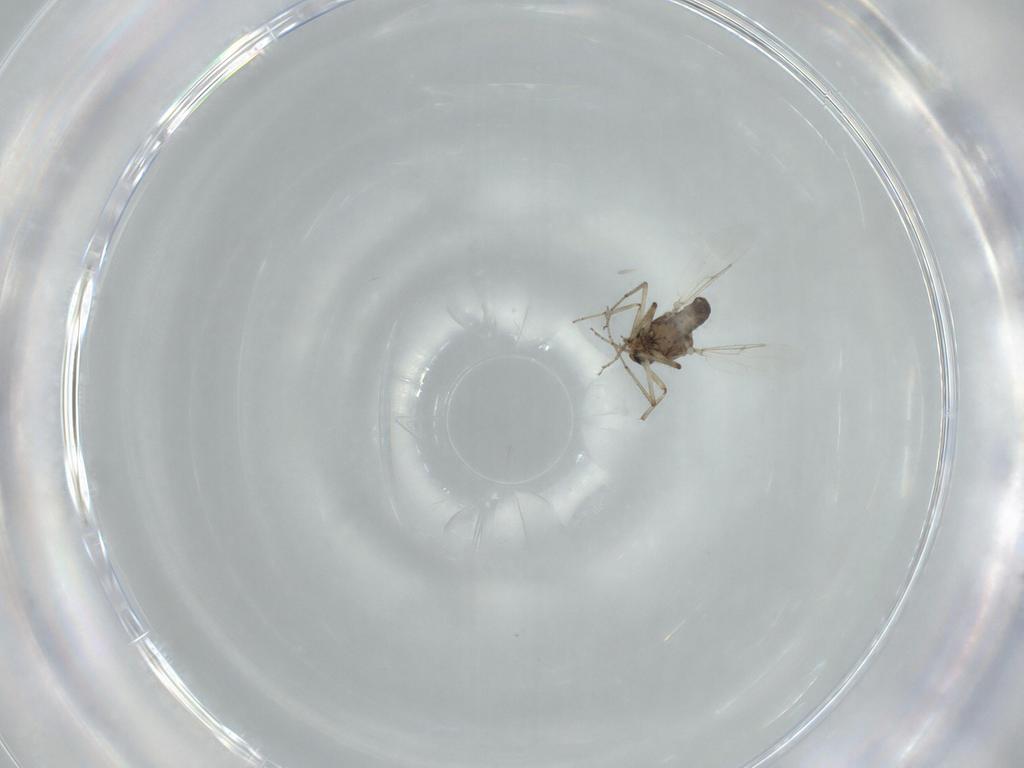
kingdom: Animalia
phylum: Arthropoda
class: Insecta
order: Diptera
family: Ceratopogonidae
